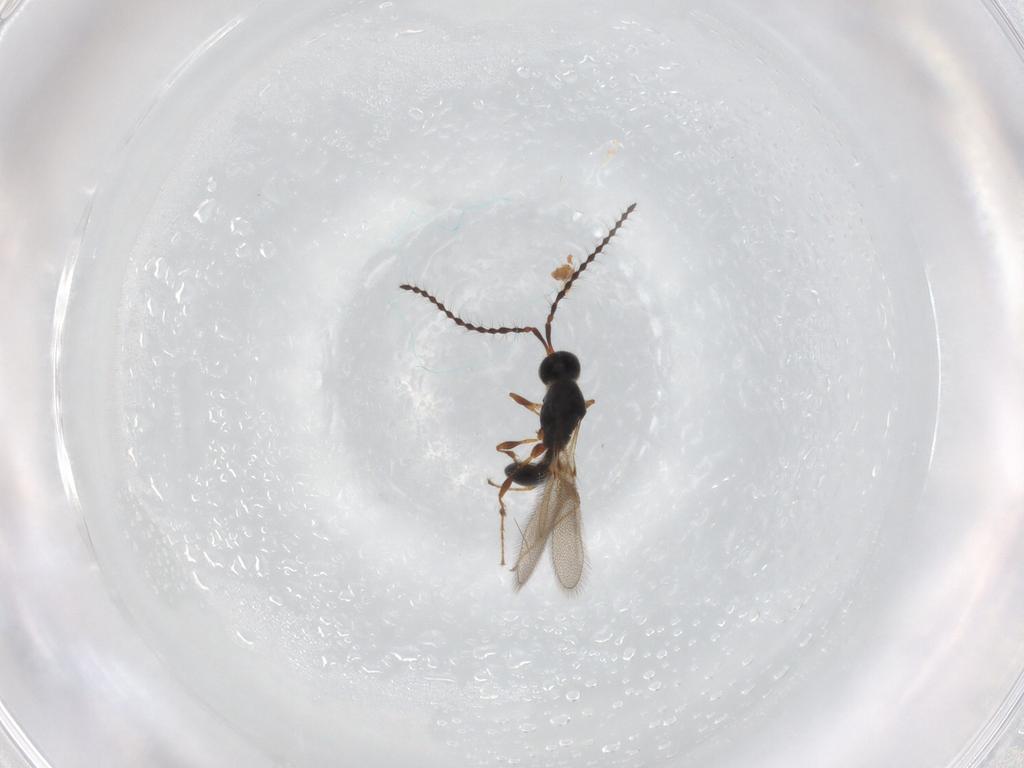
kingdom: Animalia
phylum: Arthropoda
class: Insecta
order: Hymenoptera
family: Diapriidae
